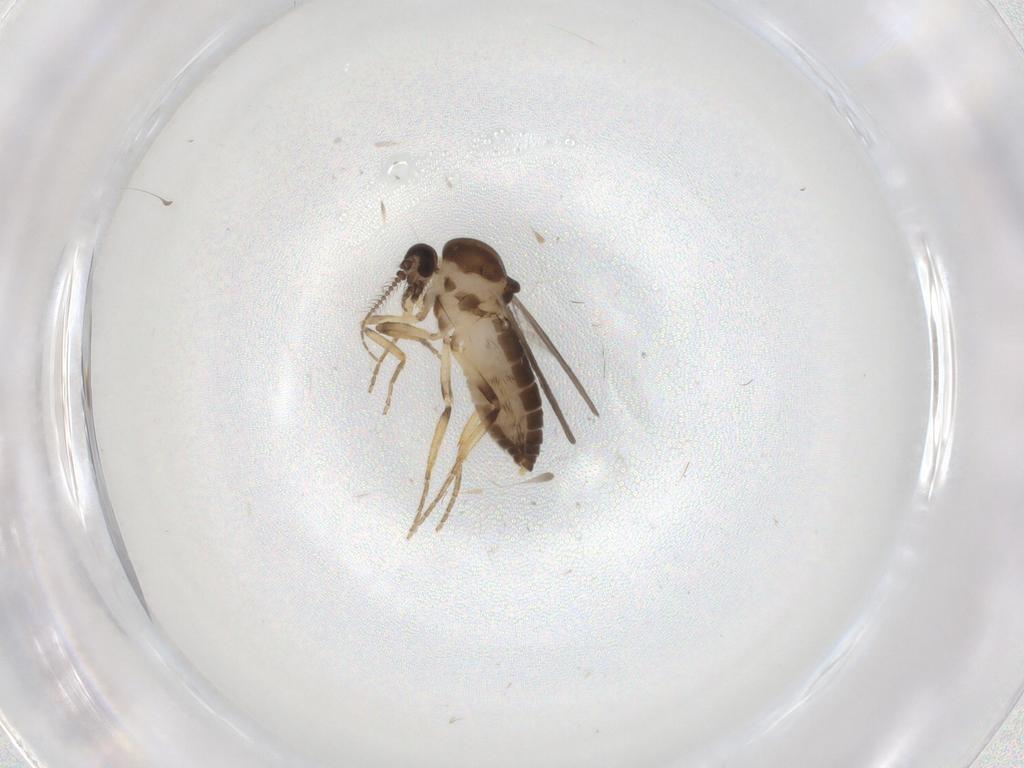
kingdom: Animalia
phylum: Arthropoda
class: Insecta
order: Diptera
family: Ceratopogonidae
